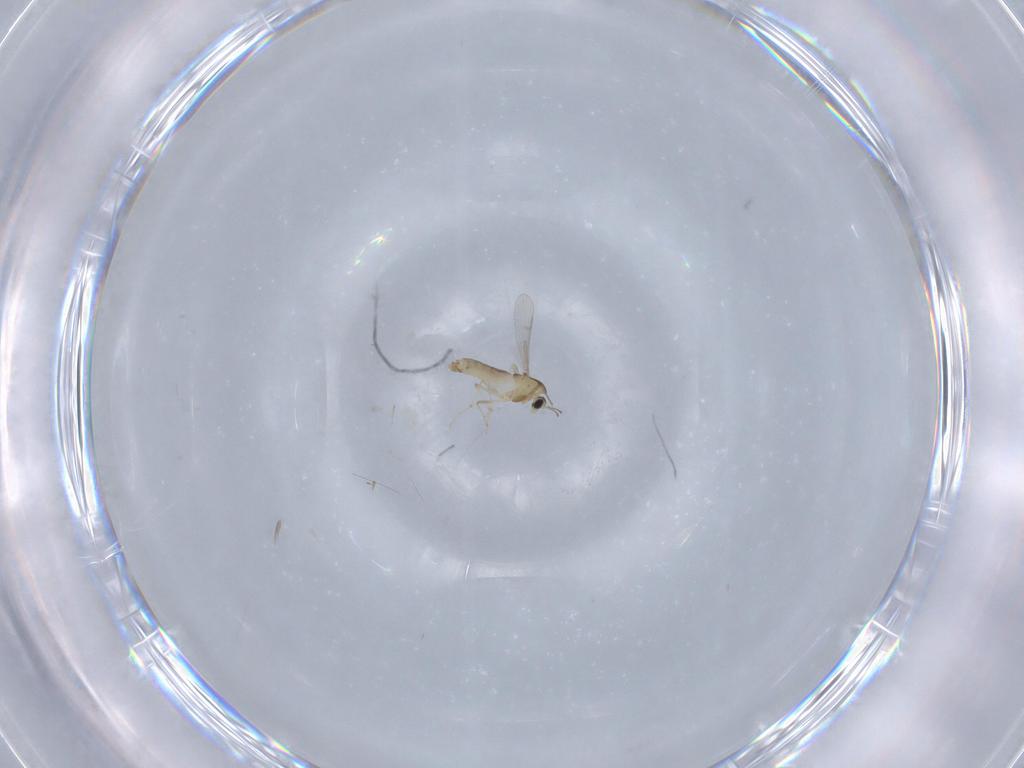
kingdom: Animalia
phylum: Arthropoda
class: Insecta
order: Diptera
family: Chironomidae
